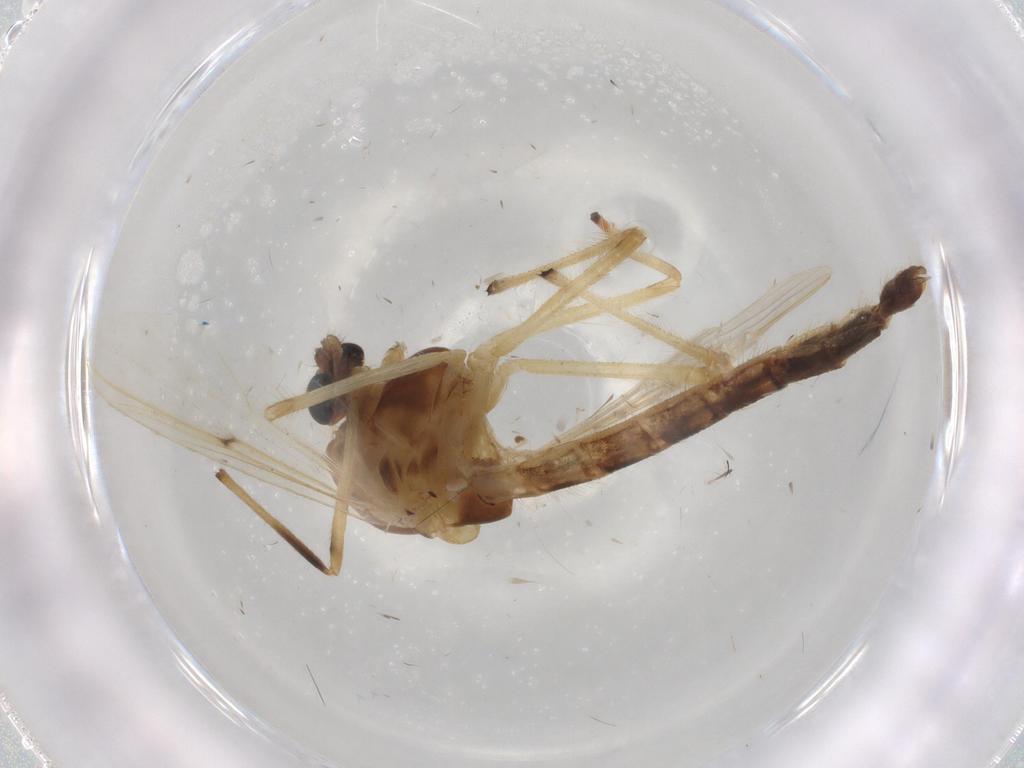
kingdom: Animalia
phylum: Arthropoda
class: Insecta
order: Diptera
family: Chironomidae
